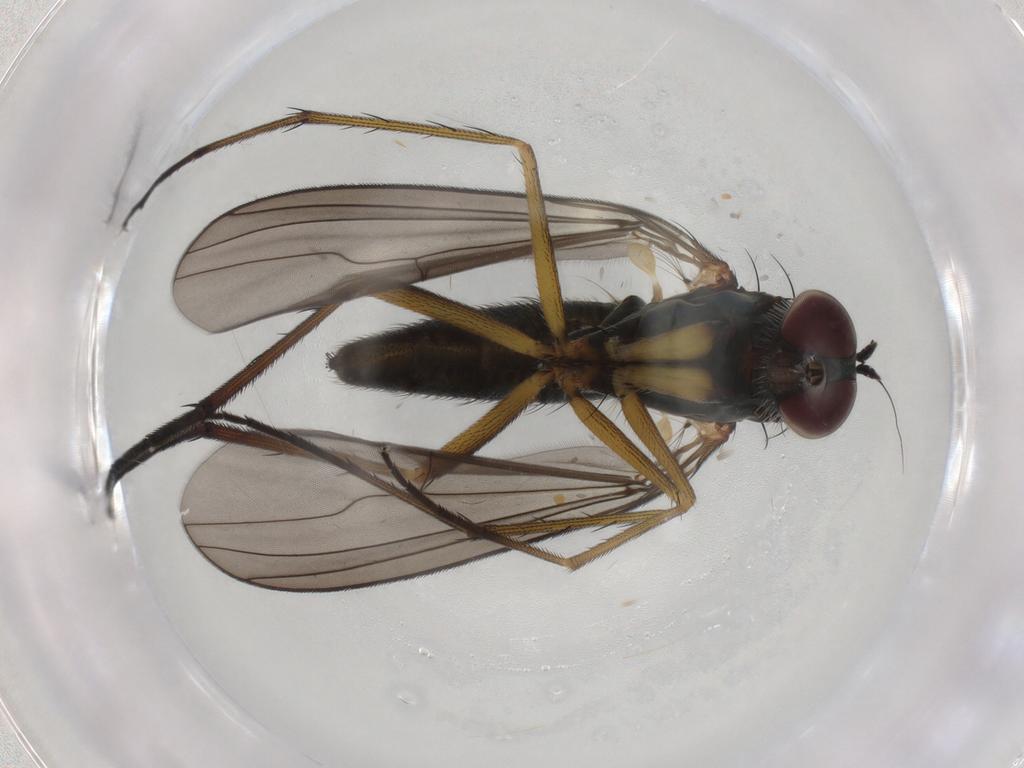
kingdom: Animalia
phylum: Arthropoda
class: Insecta
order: Diptera
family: Dolichopodidae
